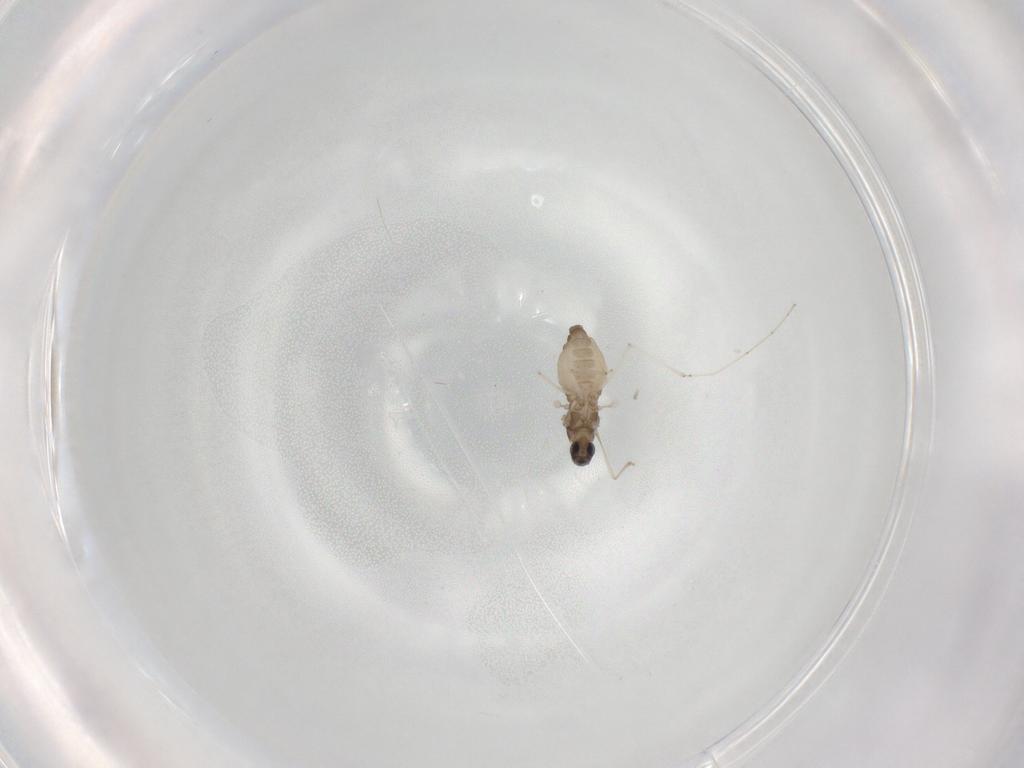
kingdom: Animalia
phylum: Arthropoda
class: Insecta
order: Diptera
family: Cecidomyiidae
